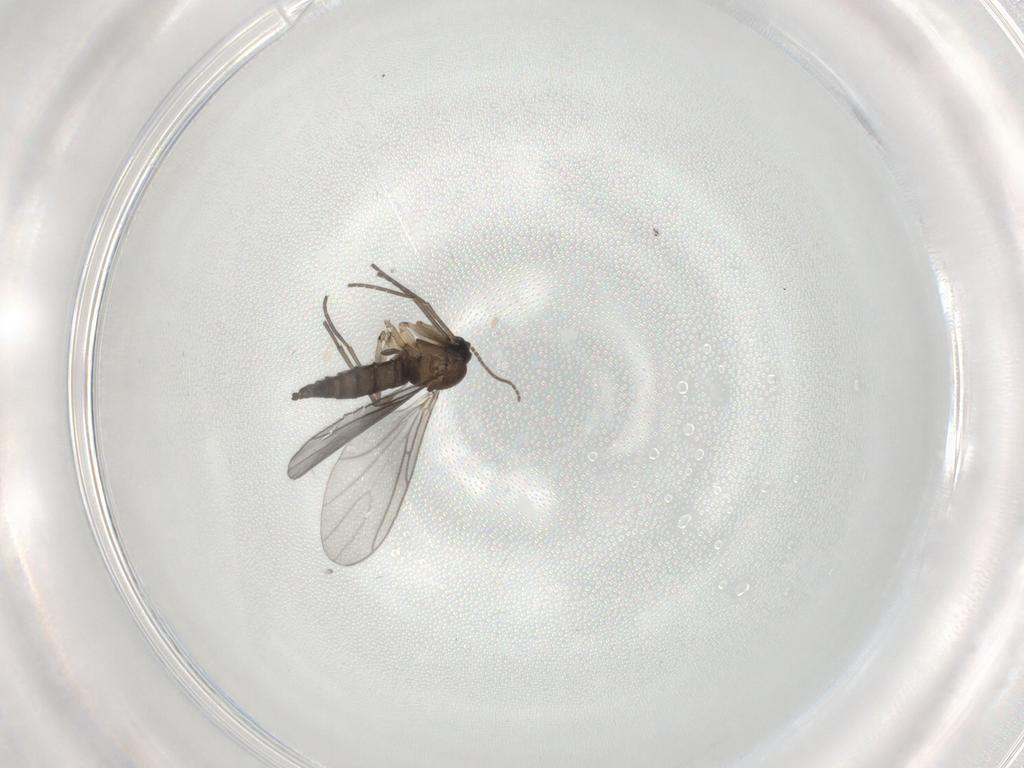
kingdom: Animalia
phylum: Arthropoda
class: Insecta
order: Diptera
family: Sciaridae
